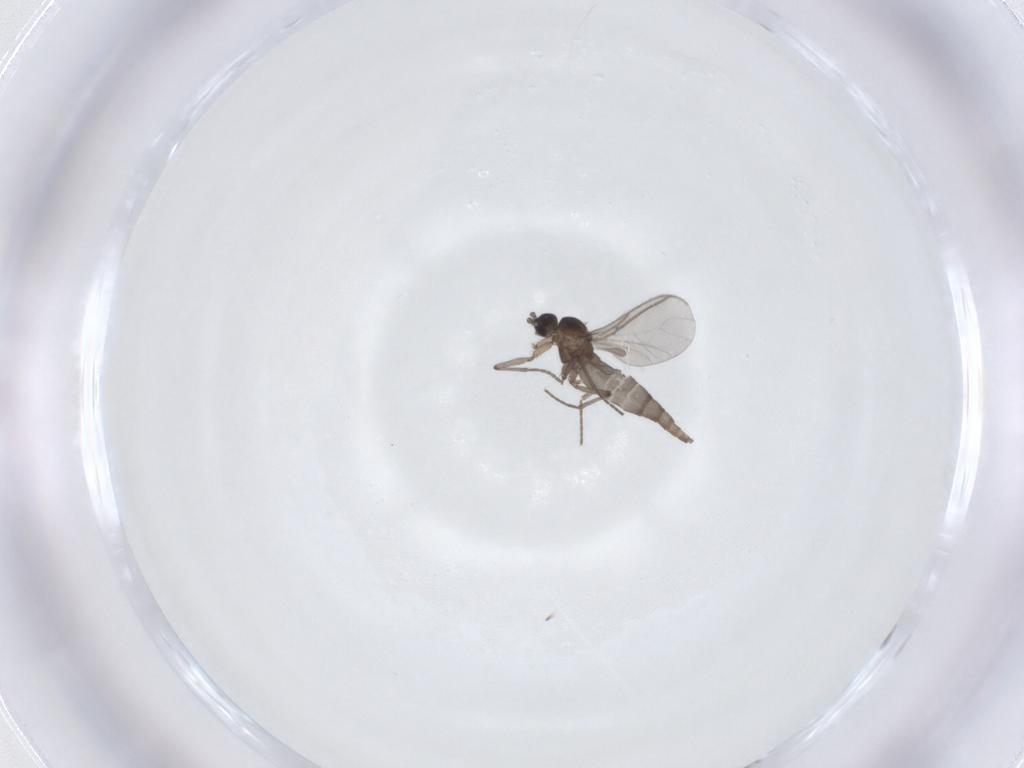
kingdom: Animalia
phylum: Arthropoda
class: Insecta
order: Diptera
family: Sciaridae
